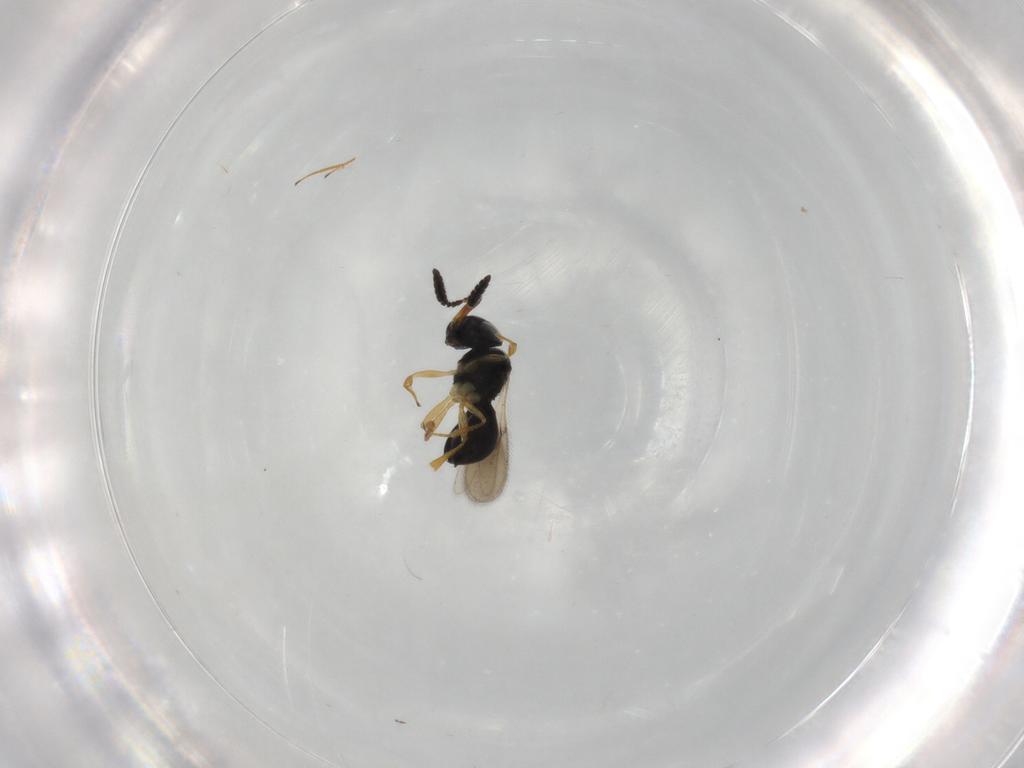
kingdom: Animalia
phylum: Arthropoda
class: Insecta
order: Hymenoptera
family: Scelionidae
